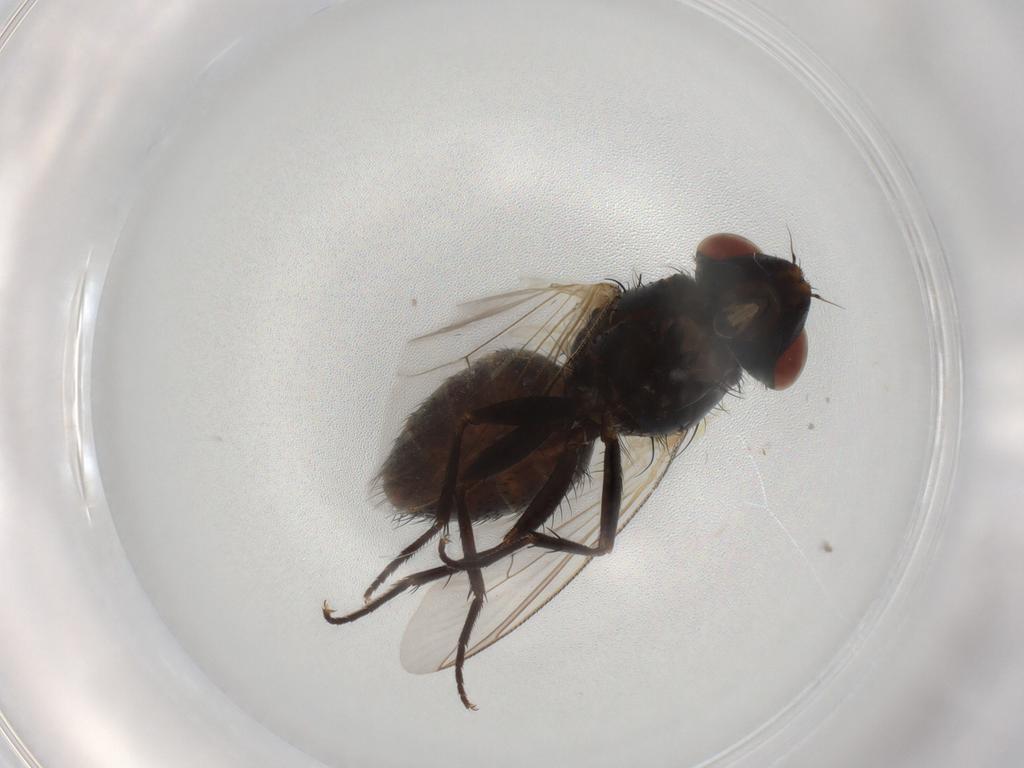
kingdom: Animalia
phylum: Arthropoda
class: Insecta
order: Diptera
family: Sarcophagidae
